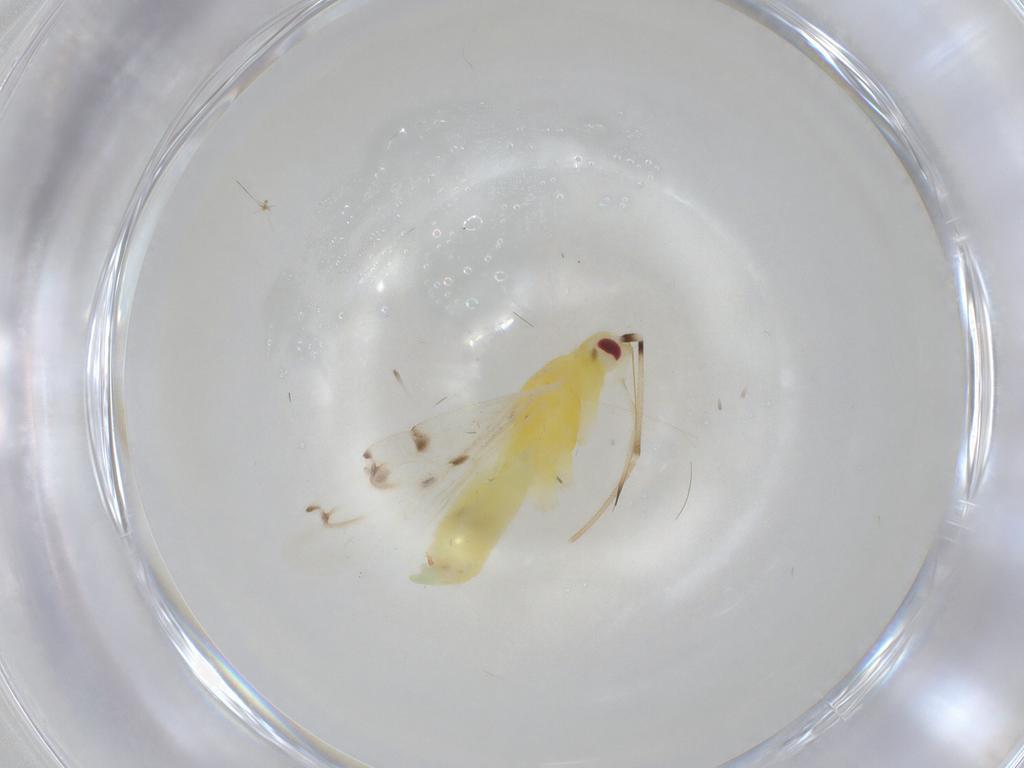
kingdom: Animalia
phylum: Arthropoda
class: Insecta
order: Hemiptera
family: Miridae
